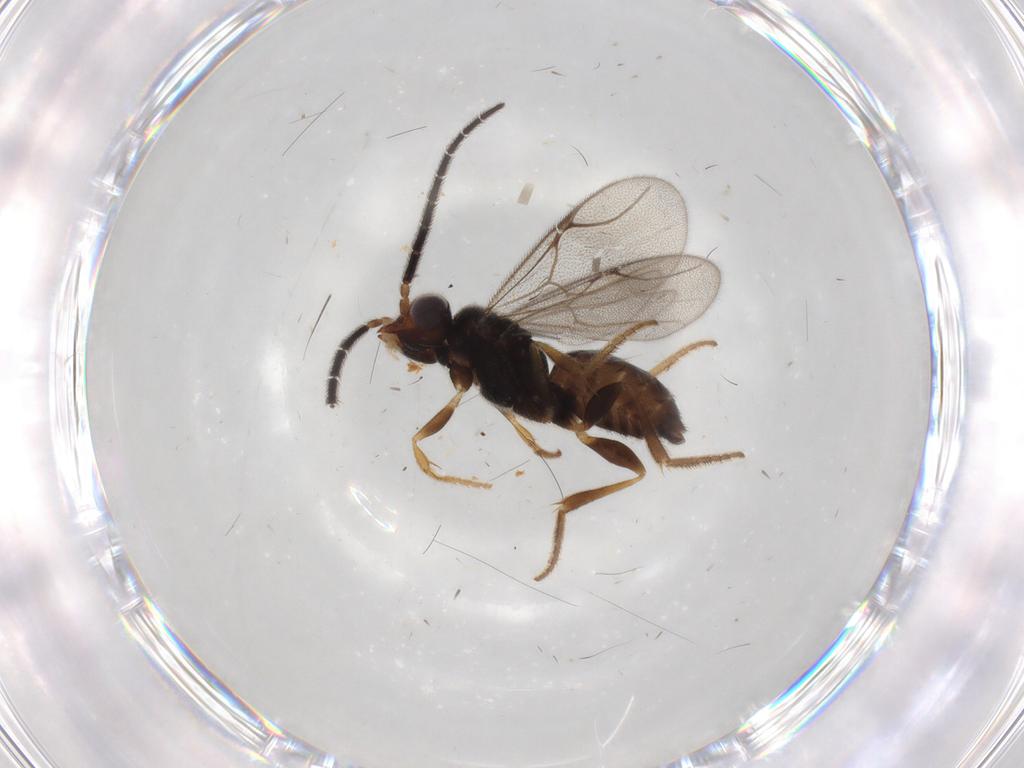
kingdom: Animalia
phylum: Arthropoda
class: Insecta
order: Hymenoptera
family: Dryinidae
